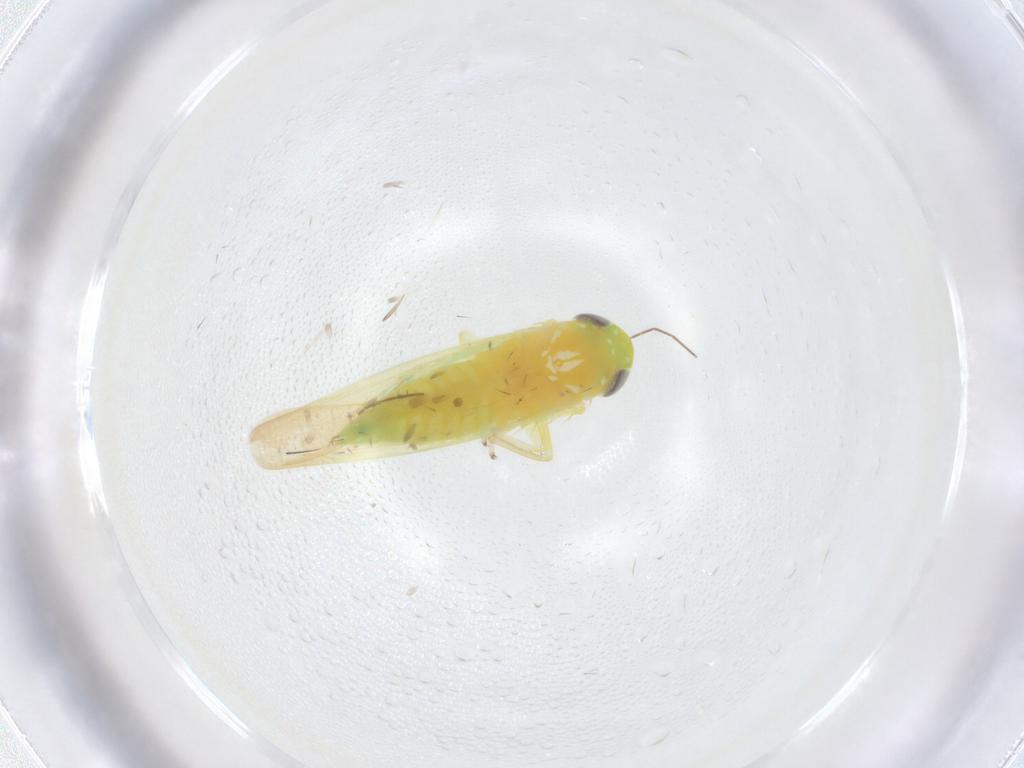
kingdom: Animalia
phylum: Arthropoda
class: Insecta
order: Hemiptera
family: Cicadellidae
